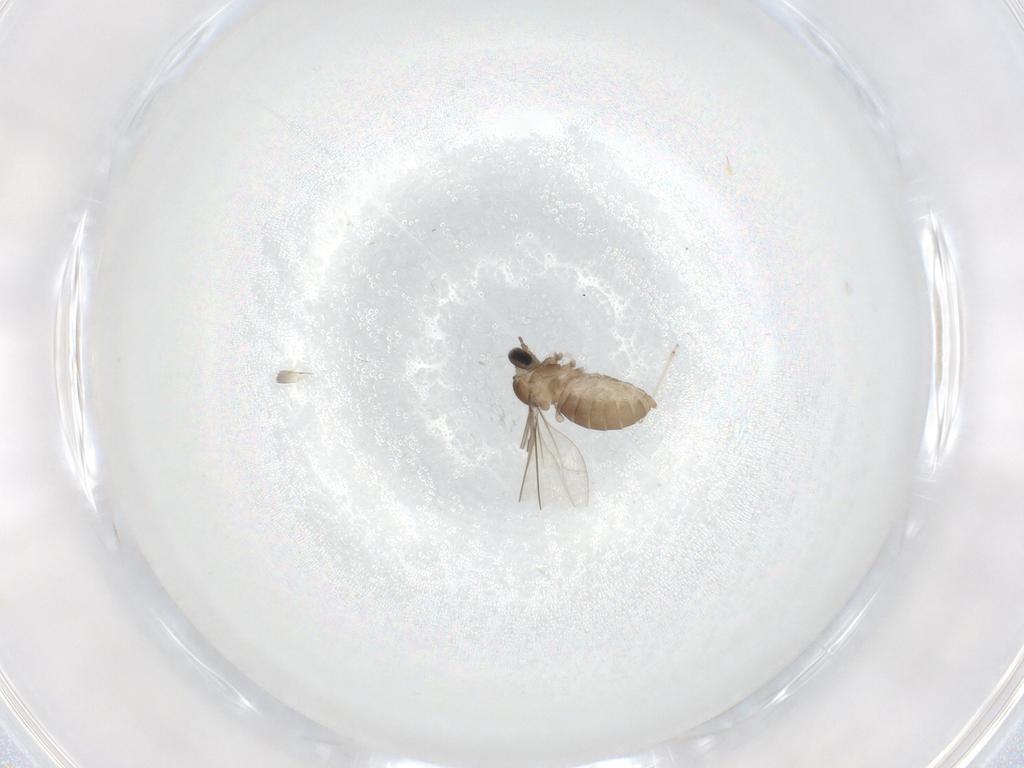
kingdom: Animalia
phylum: Arthropoda
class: Insecta
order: Diptera
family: Cecidomyiidae
